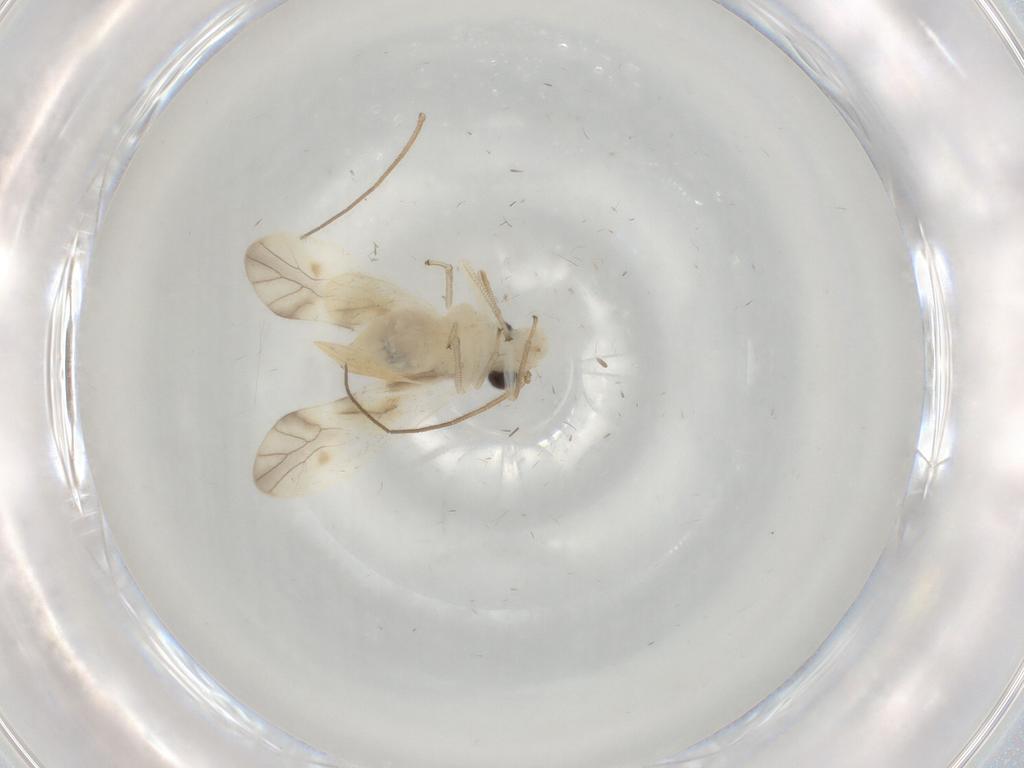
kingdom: Animalia
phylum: Arthropoda
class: Insecta
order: Psocodea
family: Caeciliusidae
